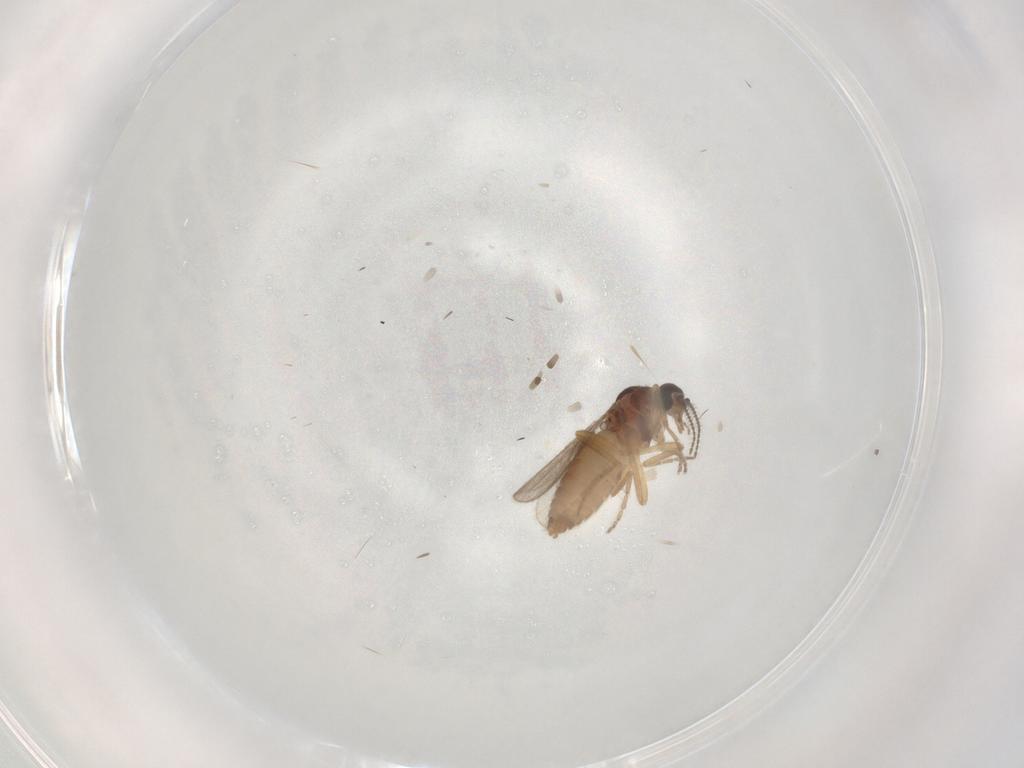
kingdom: Animalia
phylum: Arthropoda
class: Insecta
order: Diptera
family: Ceratopogonidae
